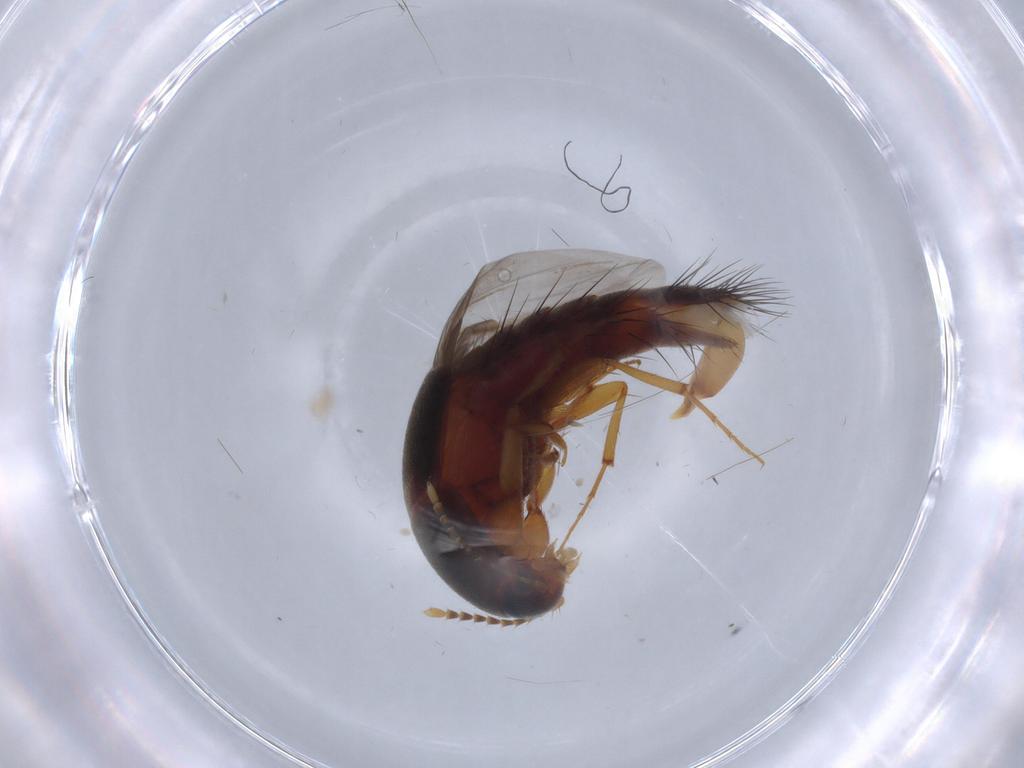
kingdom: Animalia
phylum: Arthropoda
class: Insecta
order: Coleoptera
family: Staphylinidae
